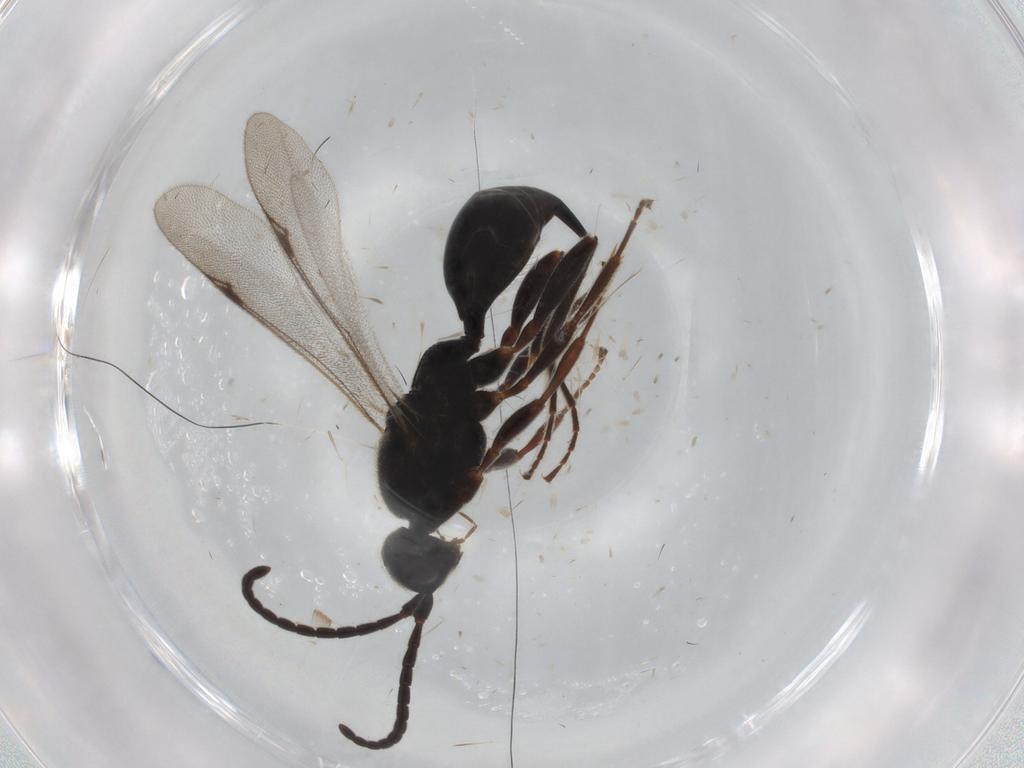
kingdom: Animalia
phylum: Arthropoda
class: Insecta
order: Hymenoptera
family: Proctotrupidae
